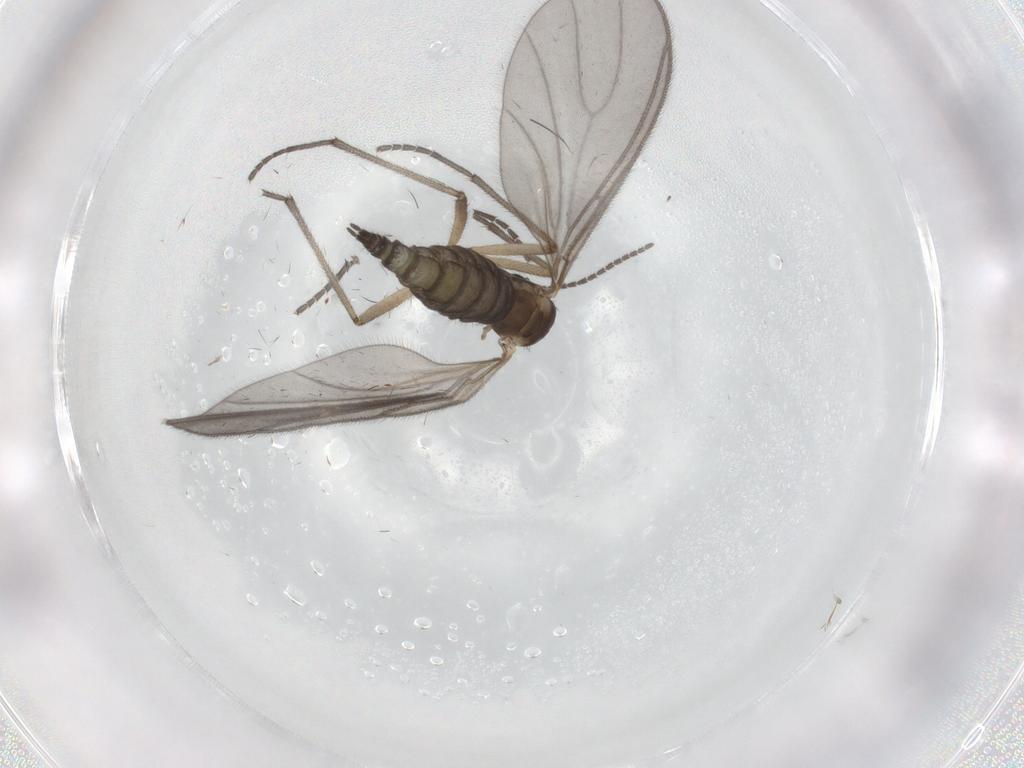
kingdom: Animalia
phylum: Arthropoda
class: Insecta
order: Diptera
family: Sciaridae
